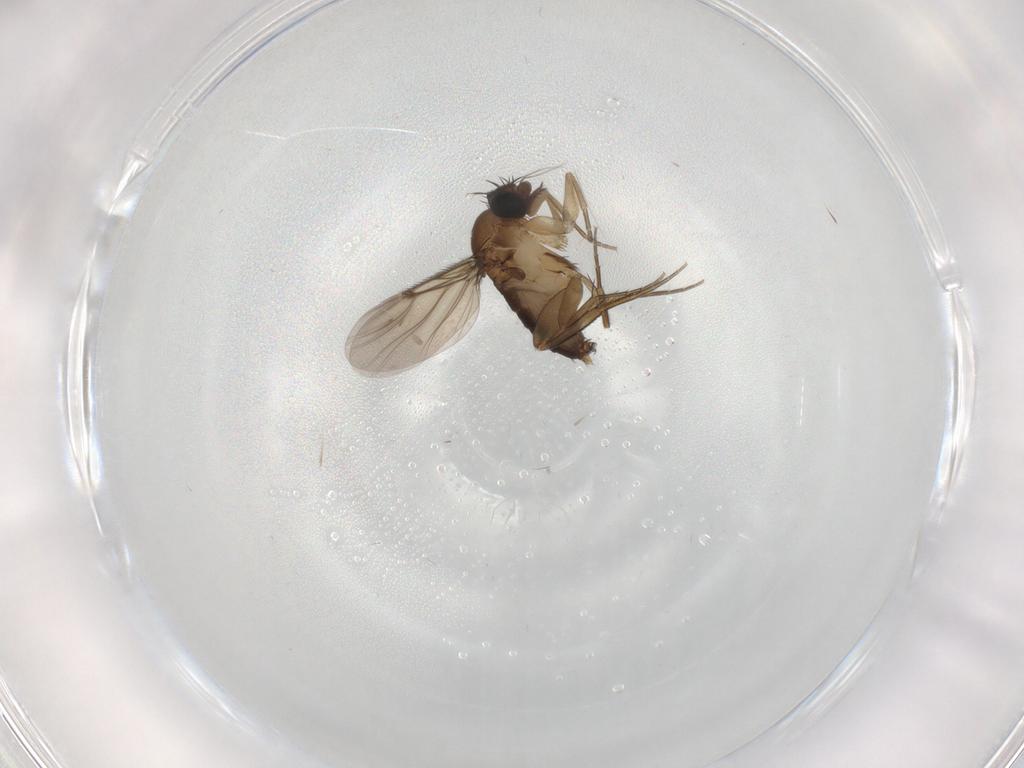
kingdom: Animalia
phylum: Arthropoda
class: Insecta
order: Diptera
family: Phoridae
